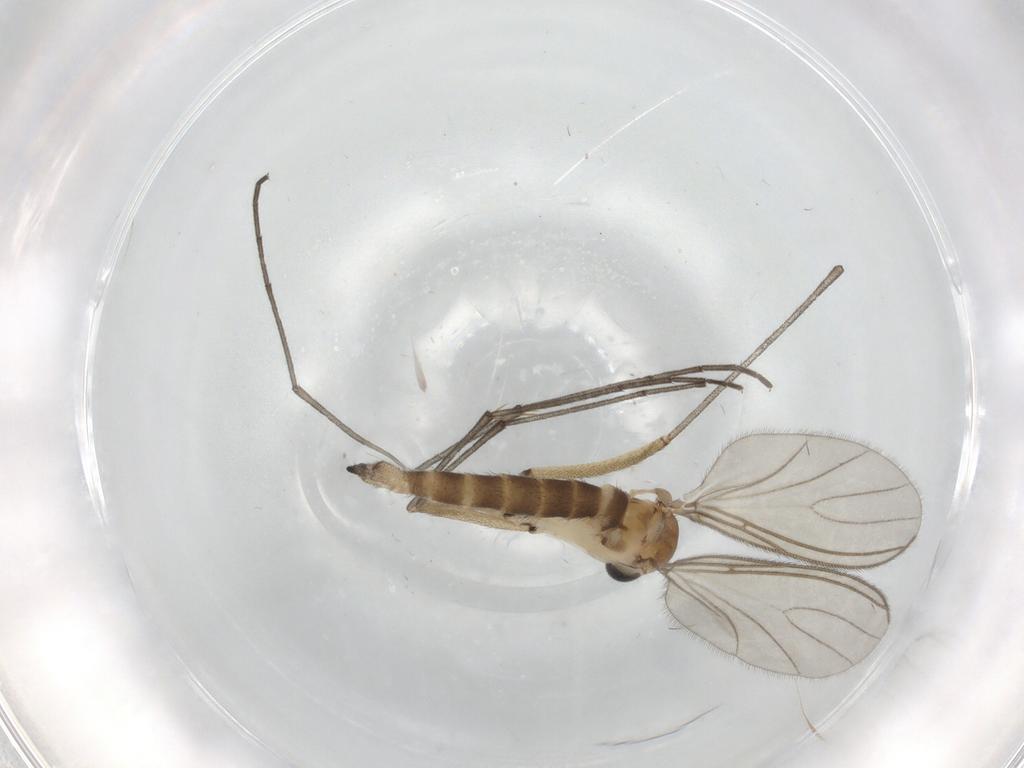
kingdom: Animalia
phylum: Arthropoda
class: Insecta
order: Diptera
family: Sciaridae
